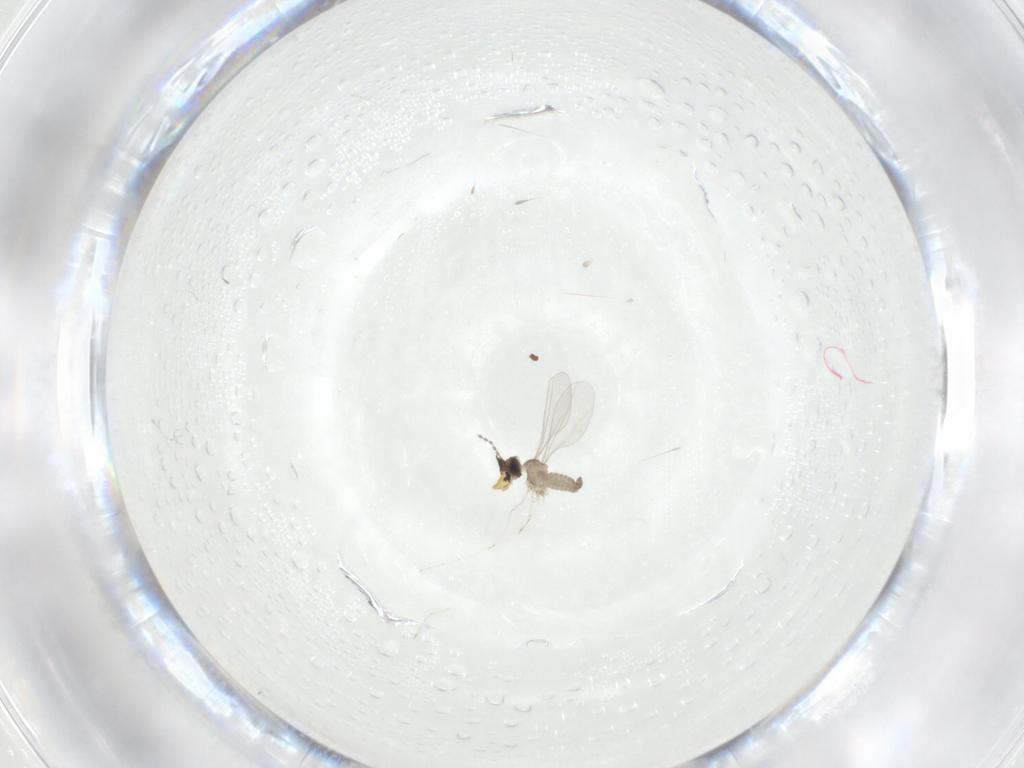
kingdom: Animalia
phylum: Arthropoda
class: Insecta
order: Diptera
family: Cecidomyiidae
